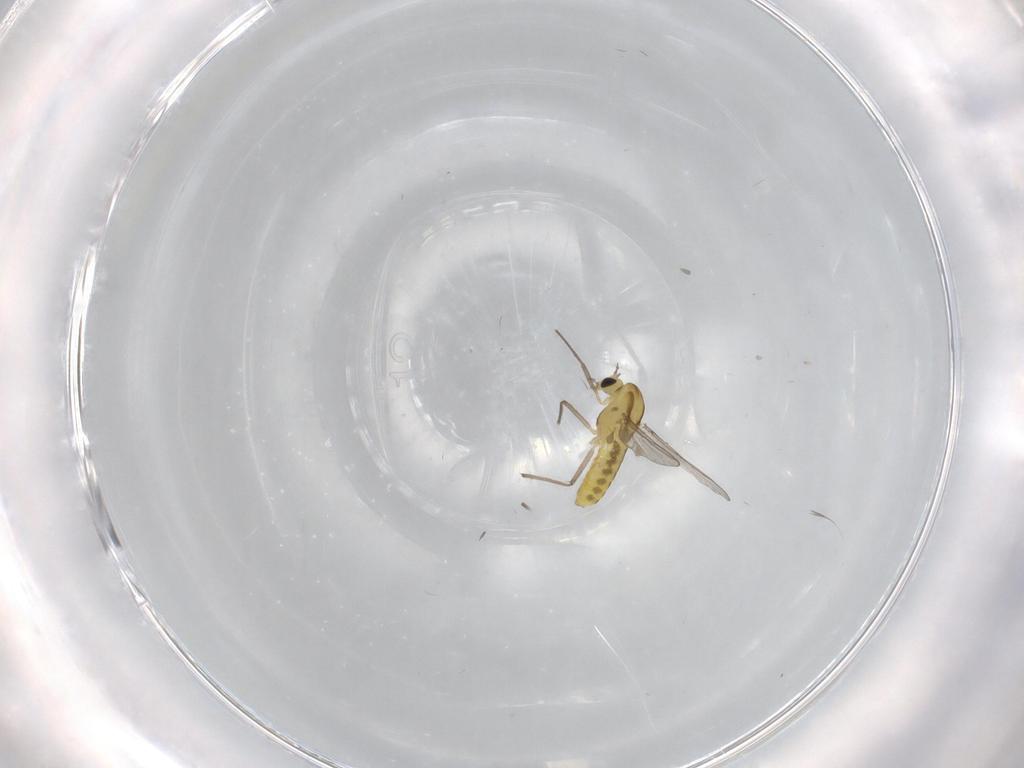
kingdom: Animalia
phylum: Arthropoda
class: Insecta
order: Diptera
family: Chironomidae
